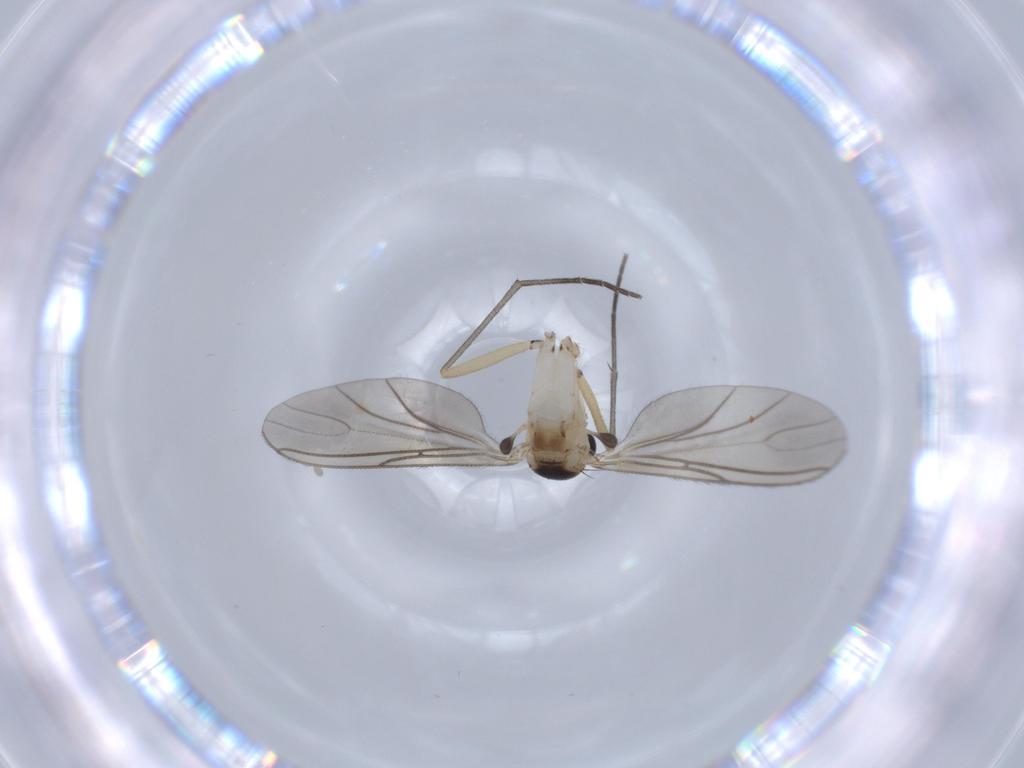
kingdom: Animalia
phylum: Arthropoda
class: Insecta
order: Diptera
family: Sciaridae
